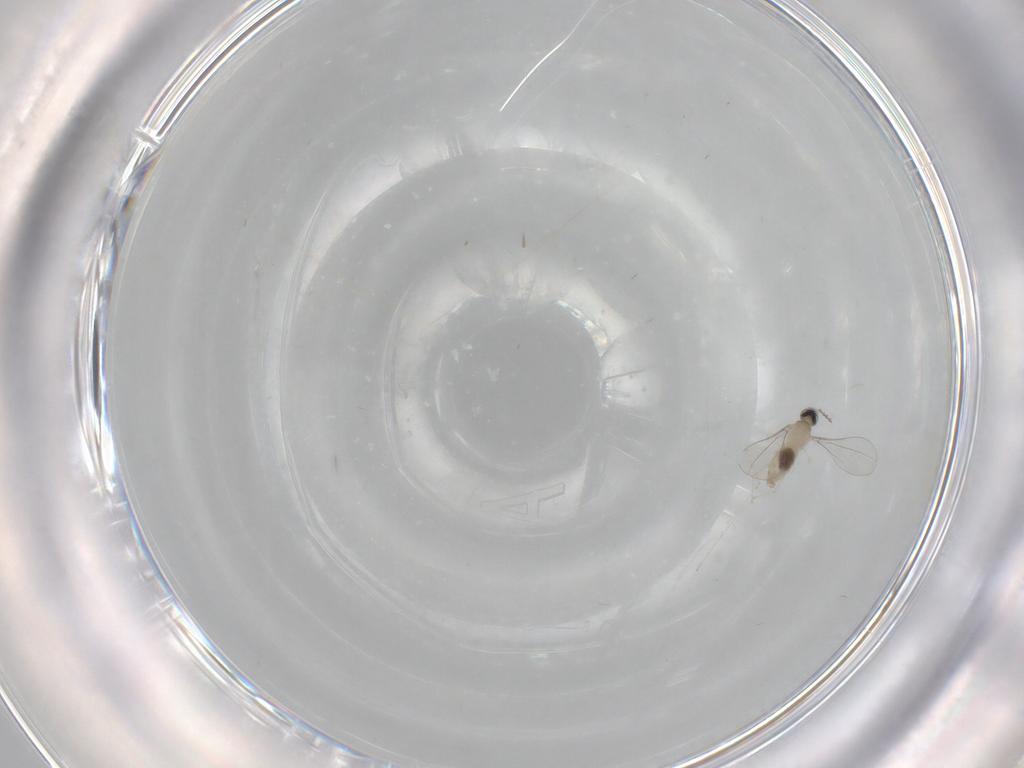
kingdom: Animalia
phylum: Arthropoda
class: Insecta
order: Diptera
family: Cecidomyiidae
